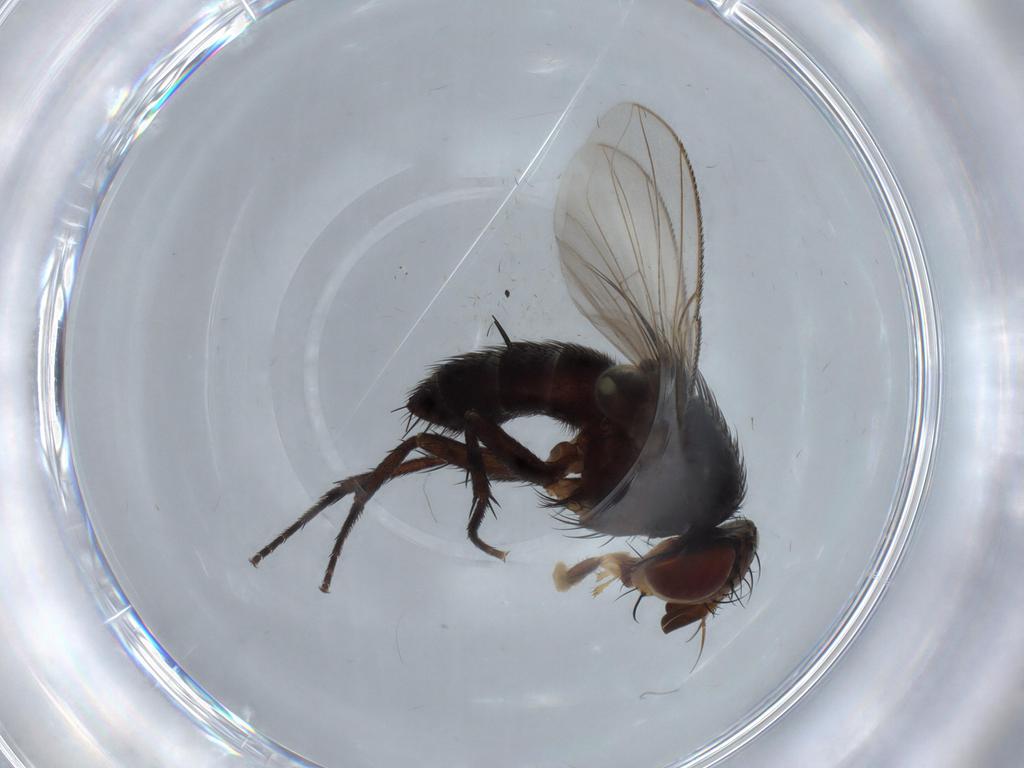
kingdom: Animalia
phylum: Arthropoda
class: Insecta
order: Diptera
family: Tachinidae
